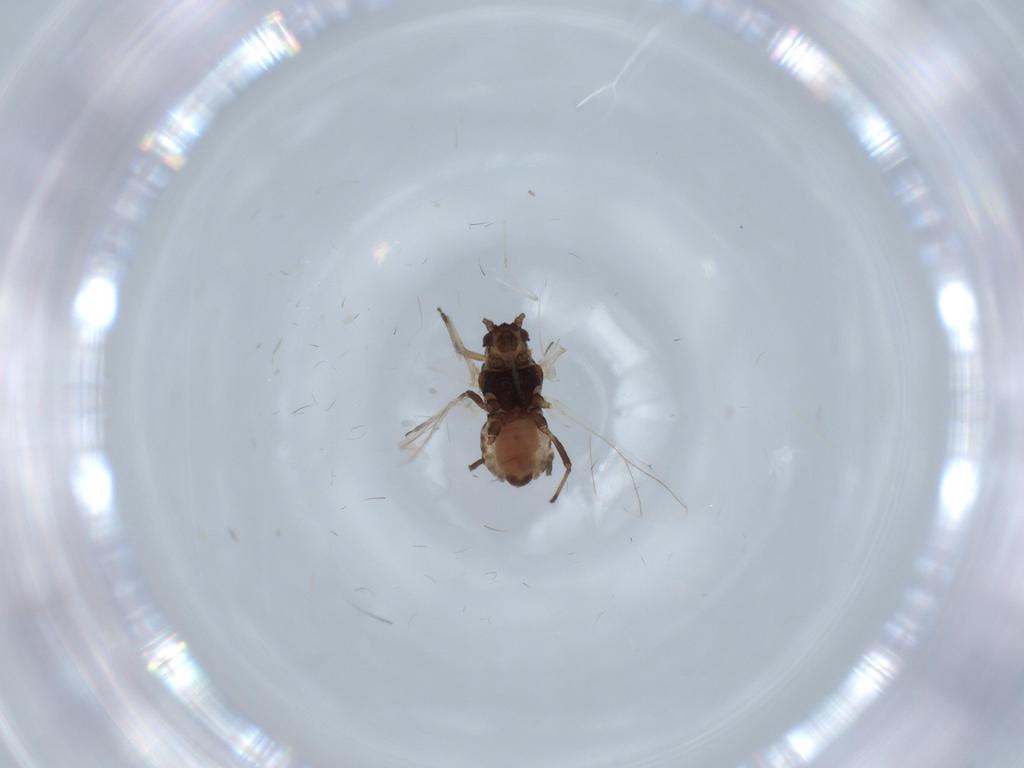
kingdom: Animalia
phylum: Arthropoda
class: Insecta
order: Hemiptera
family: Aphididae
